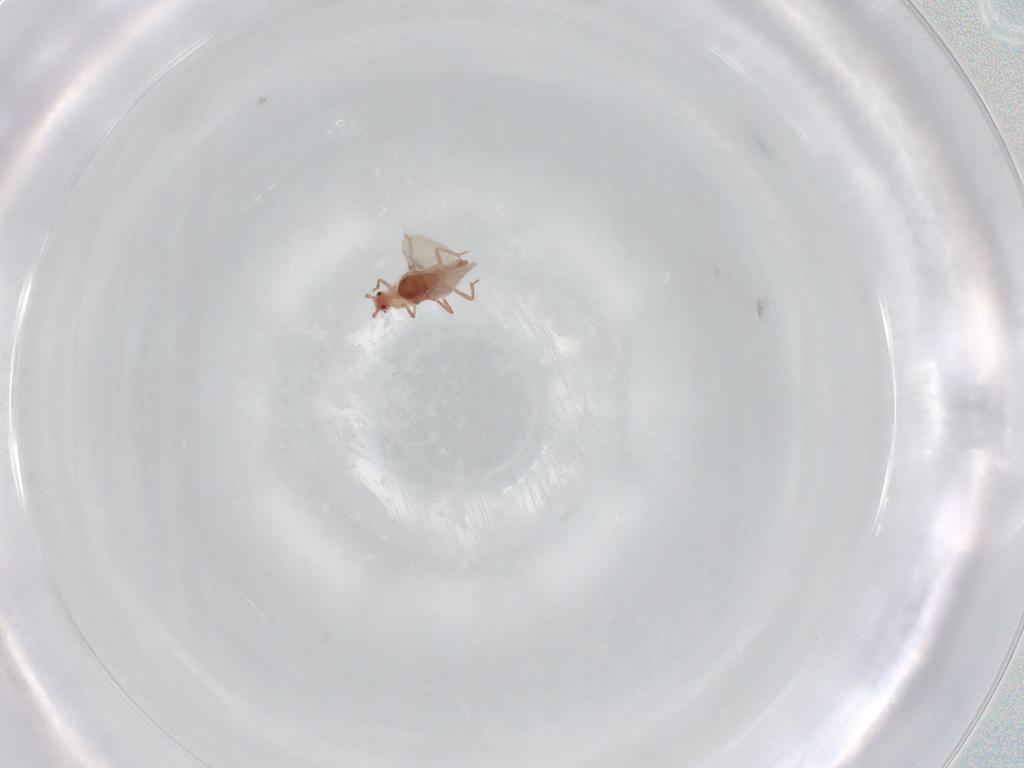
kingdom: Animalia
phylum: Arthropoda
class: Insecta
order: Hemiptera
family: Aleyrodidae
